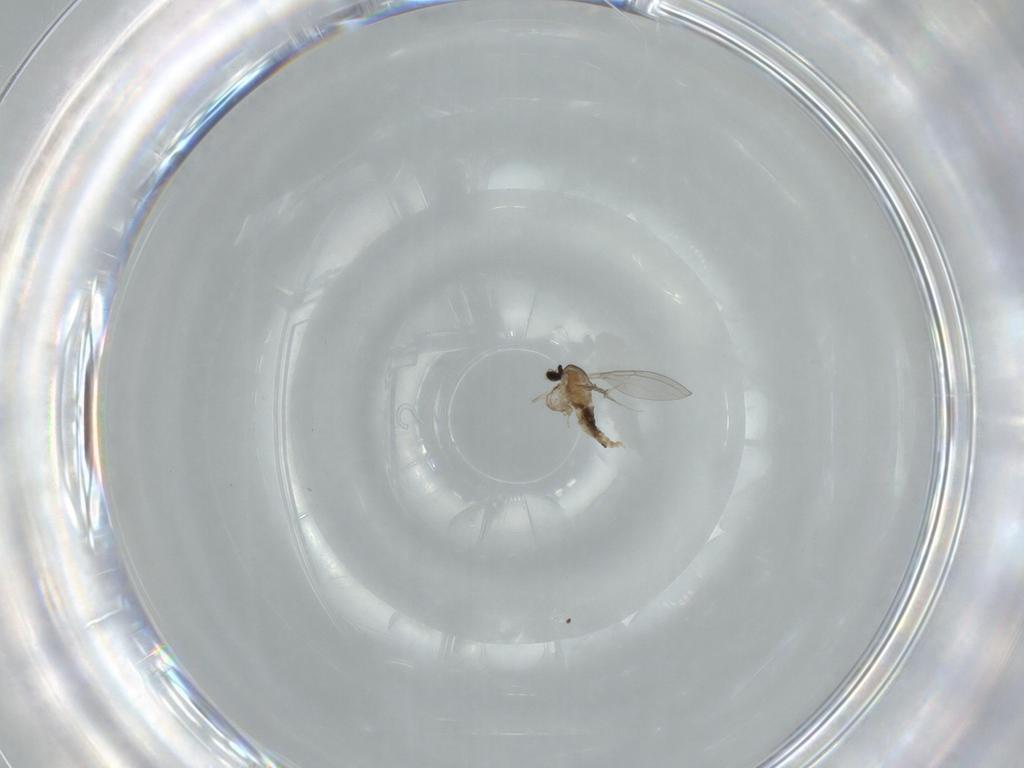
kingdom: Animalia
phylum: Arthropoda
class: Insecta
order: Diptera
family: Cecidomyiidae
